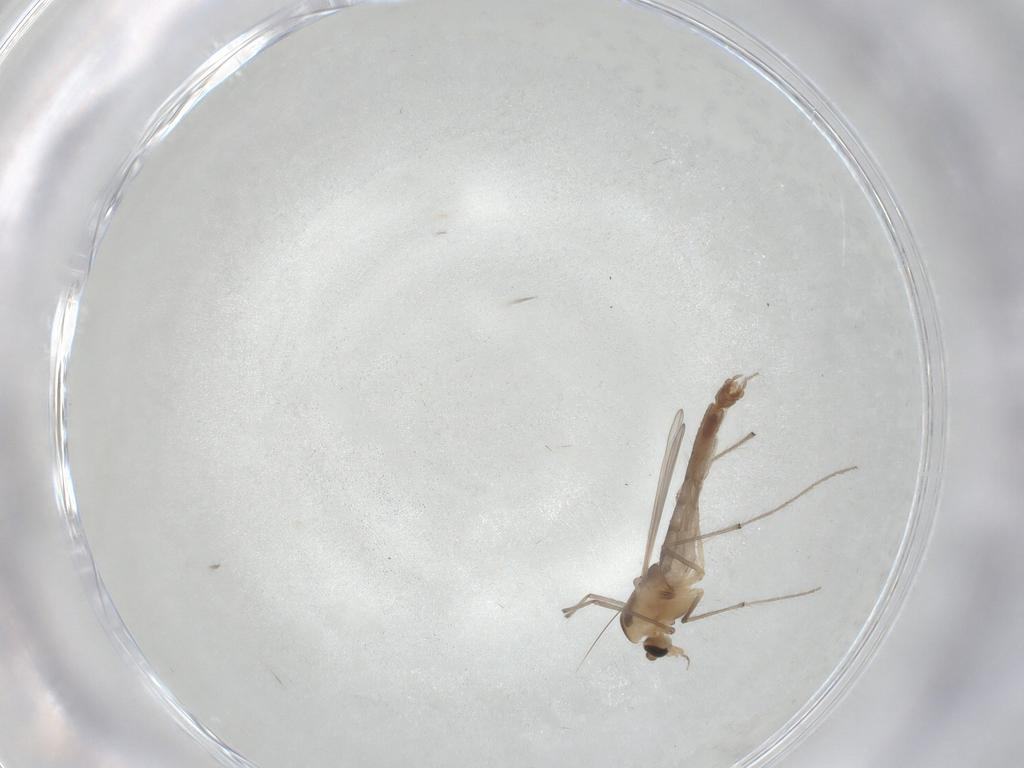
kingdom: Animalia
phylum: Arthropoda
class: Insecta
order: Diptera
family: Chironomidae
